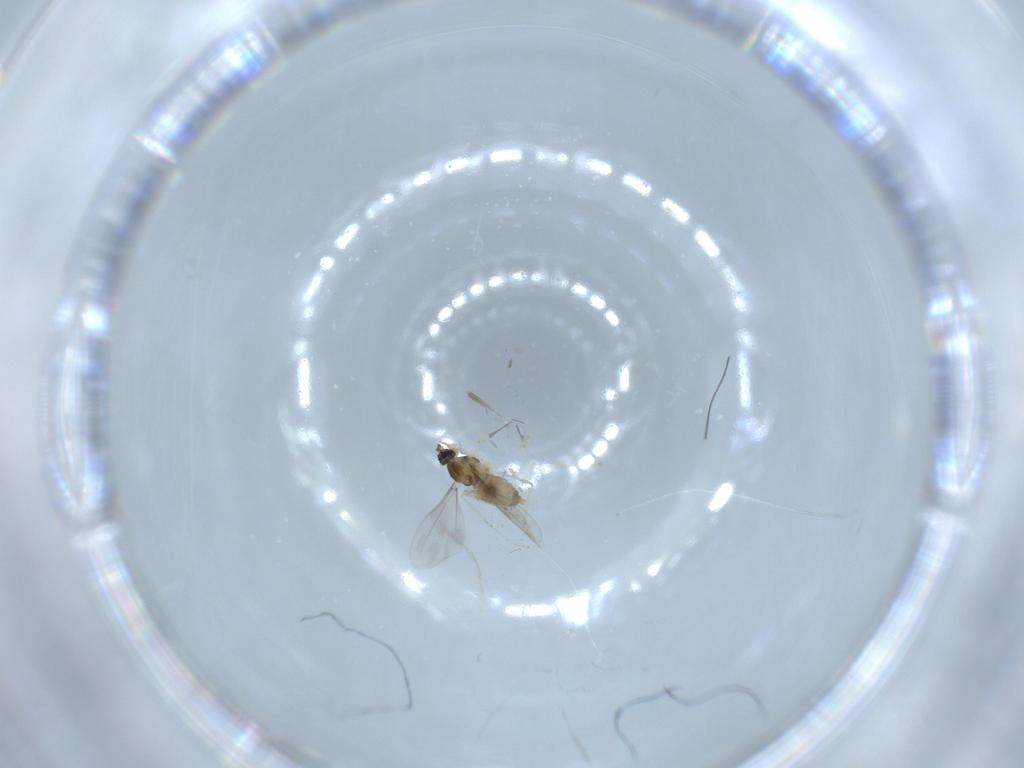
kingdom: Animalia
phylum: Arthropoda
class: Insecta
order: Diptera
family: Cecidomyiidae
